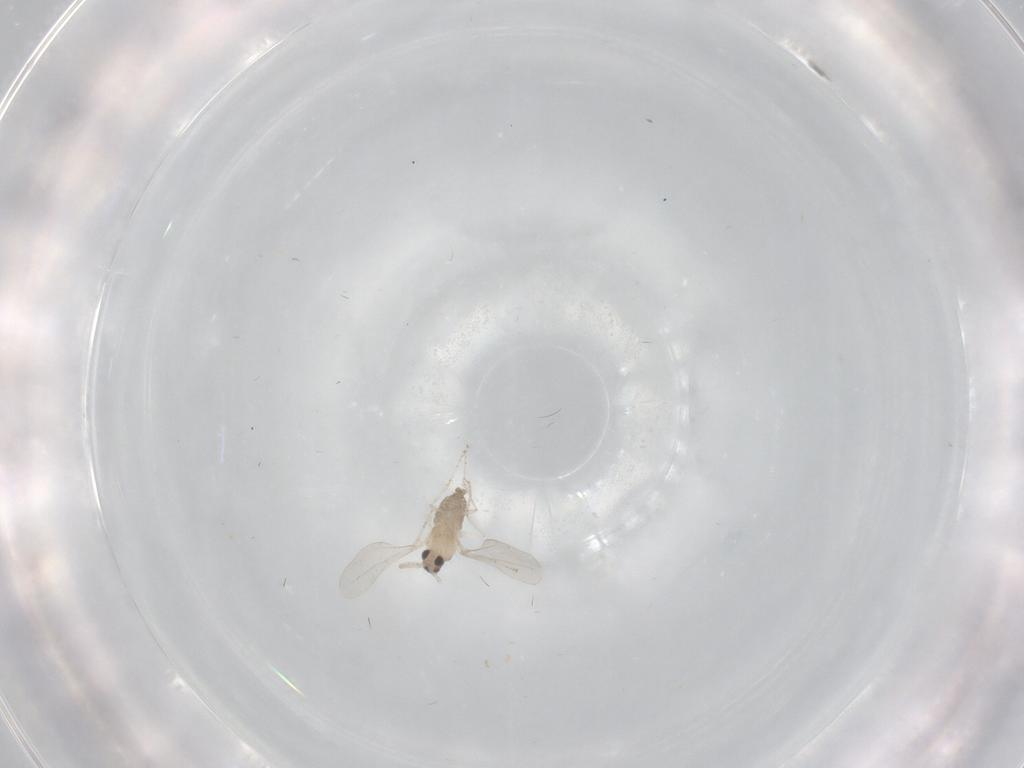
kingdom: Animalia
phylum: Arthropoda
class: Insecta
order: Diptera
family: Cecidomyiidae
